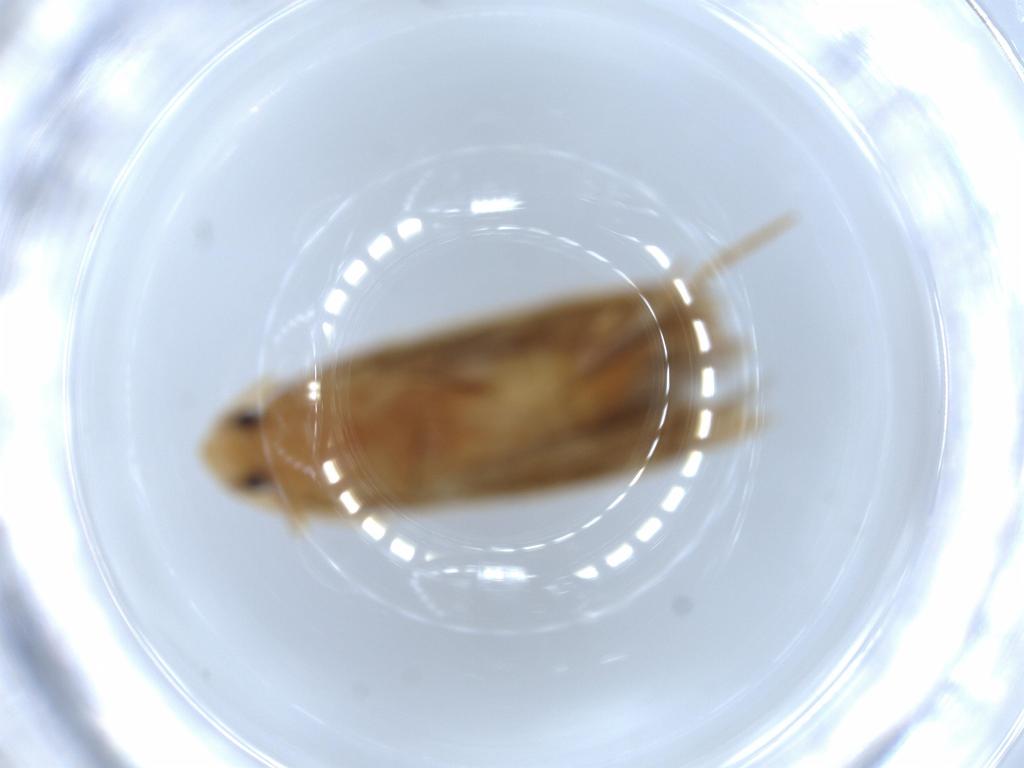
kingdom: Animalia
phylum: Arthropoda
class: Insecta
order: Lepidoptera
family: Tineidae
